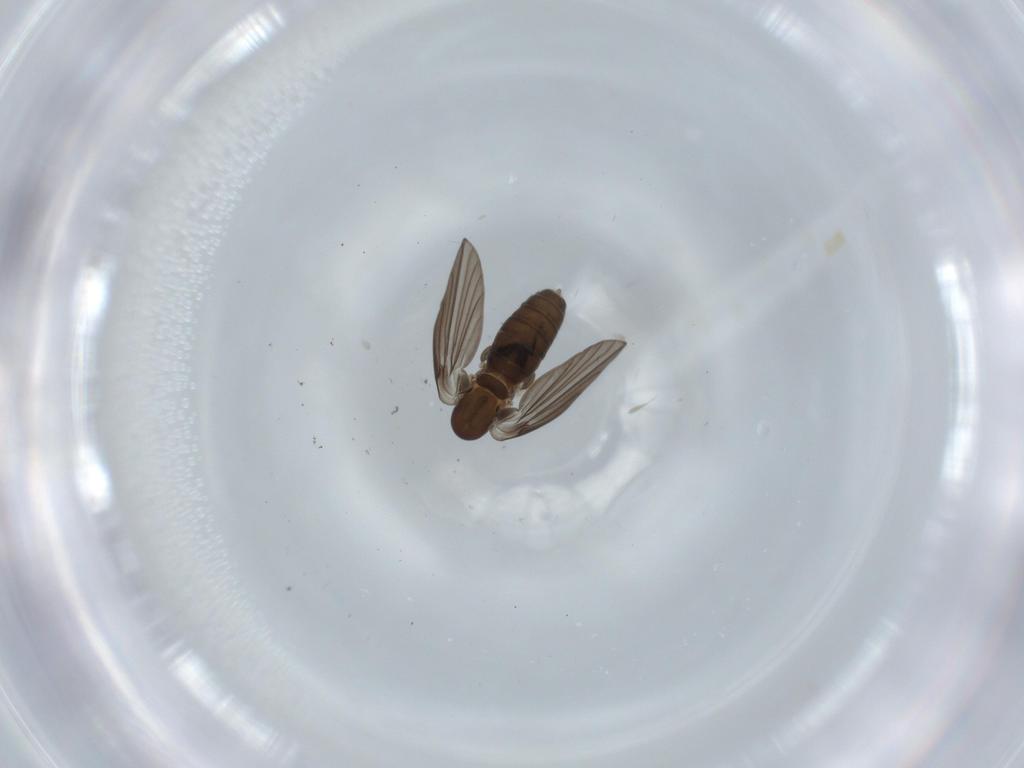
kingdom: Animalia
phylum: Arthropoda
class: Insecta
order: Diptera
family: Psychodidae
